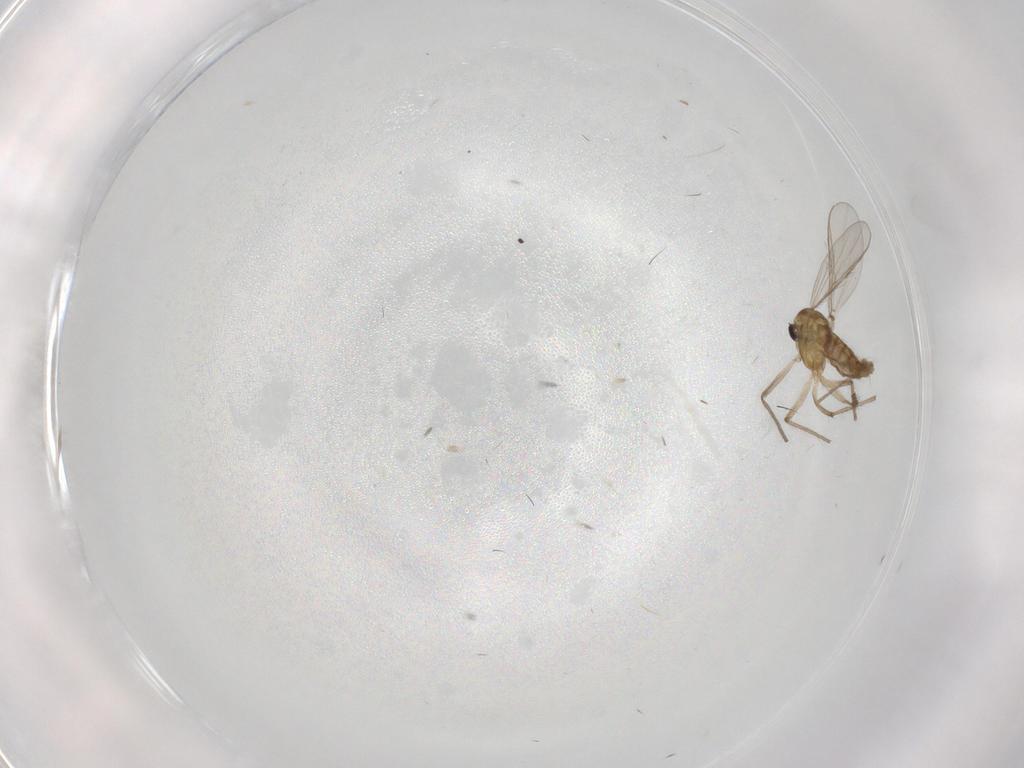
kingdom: Animalia
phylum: Arthropoda
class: Insecta
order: Diptera
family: Chironomidae
